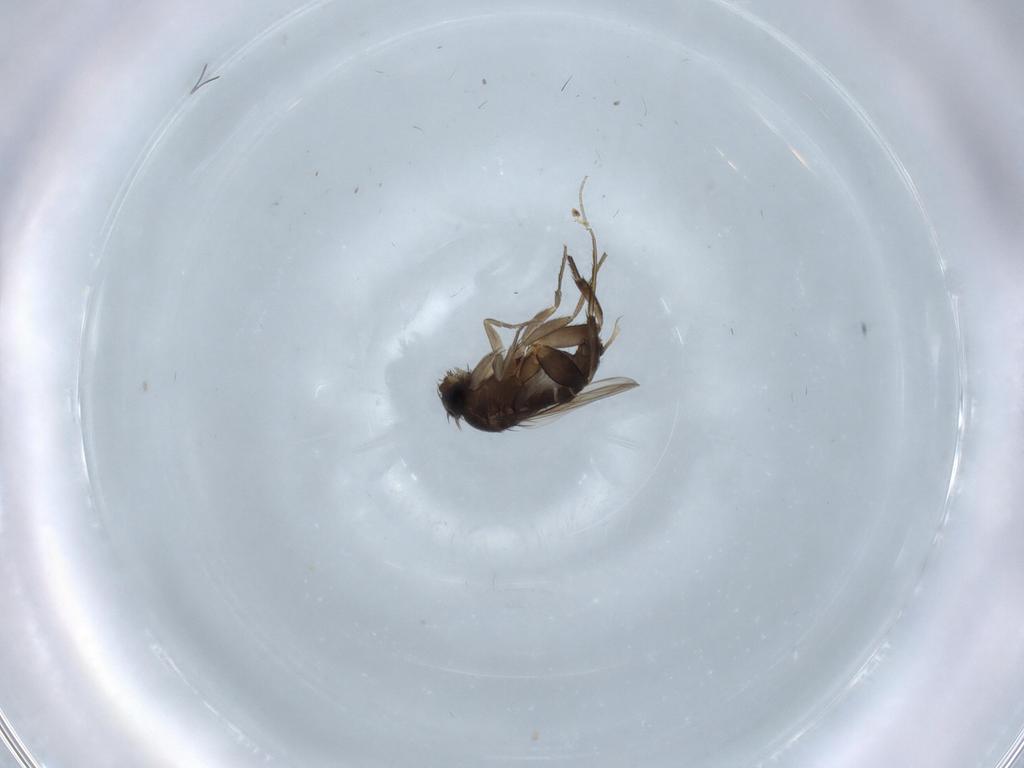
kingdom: Animalia
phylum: Arthropoda
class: Insecta
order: Diptera
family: Phoridae
